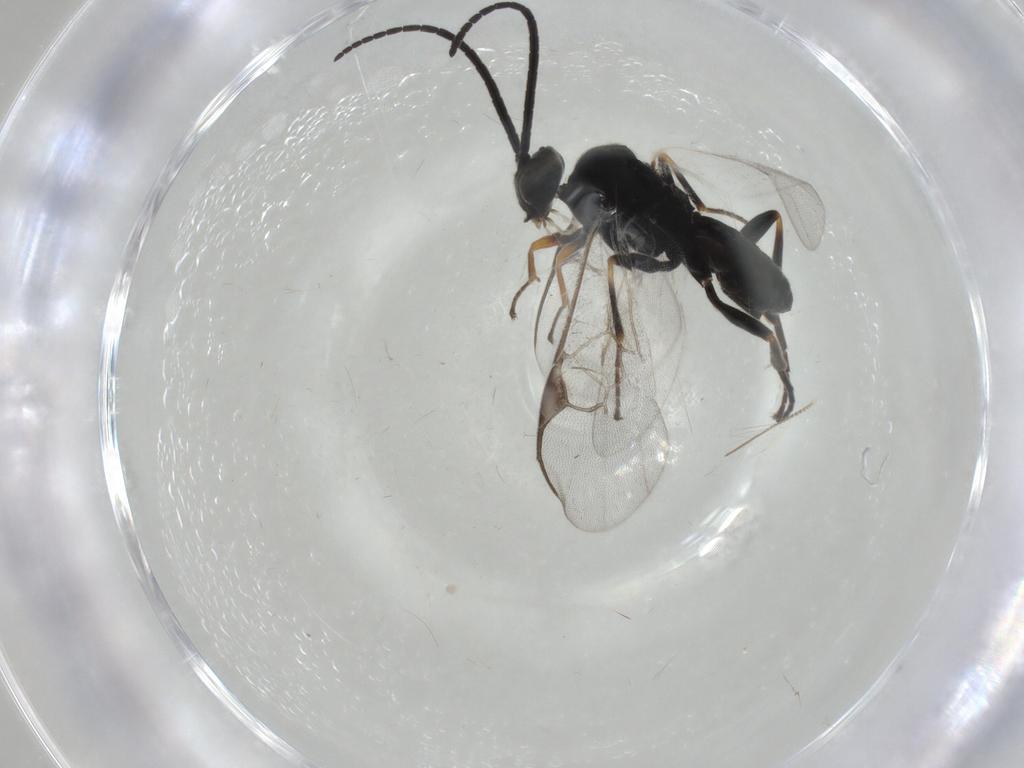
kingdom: Animalia
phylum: Arthropoda
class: Insecta
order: Hymenoptera
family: Braconidae
